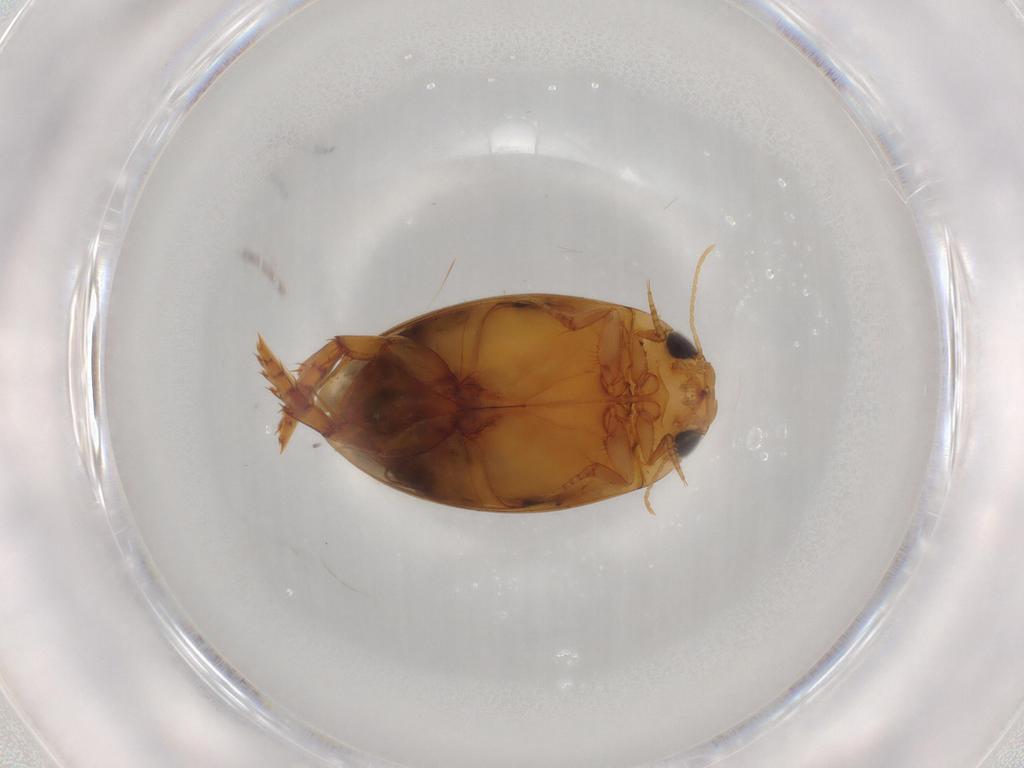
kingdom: Animalia
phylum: Arthropoda
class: Insecta
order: Coleoptera
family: Dytiscidae
